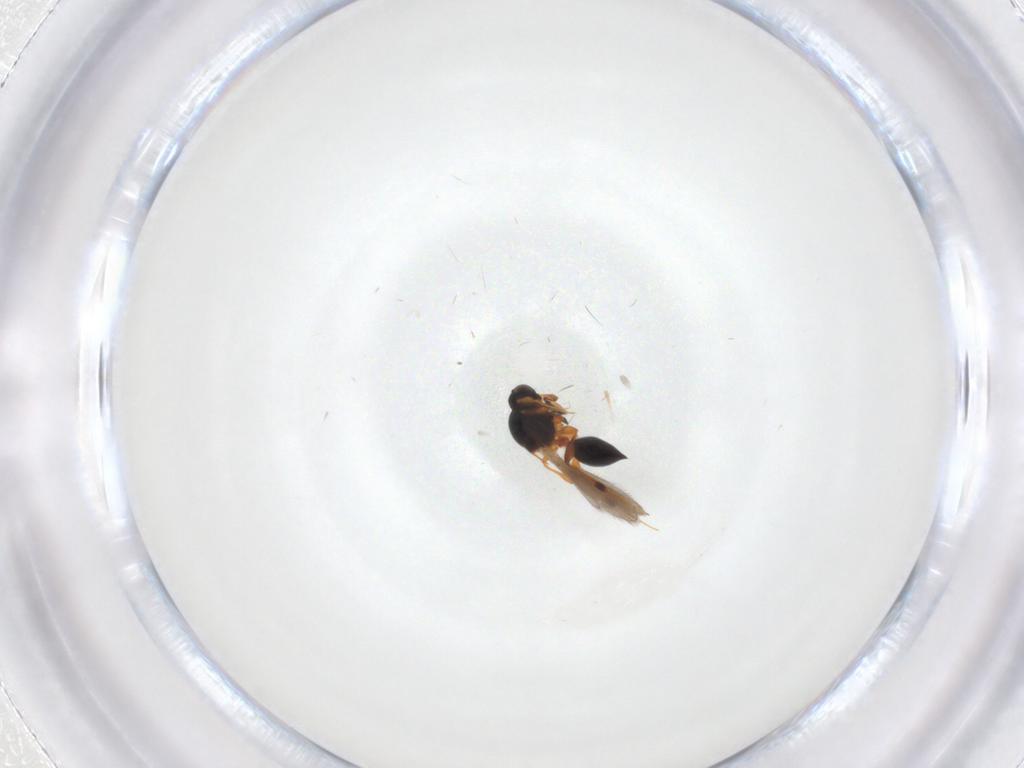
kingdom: Animalia
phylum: Arthropoda
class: Insecta
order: Hymenoptera
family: Platygastridae
